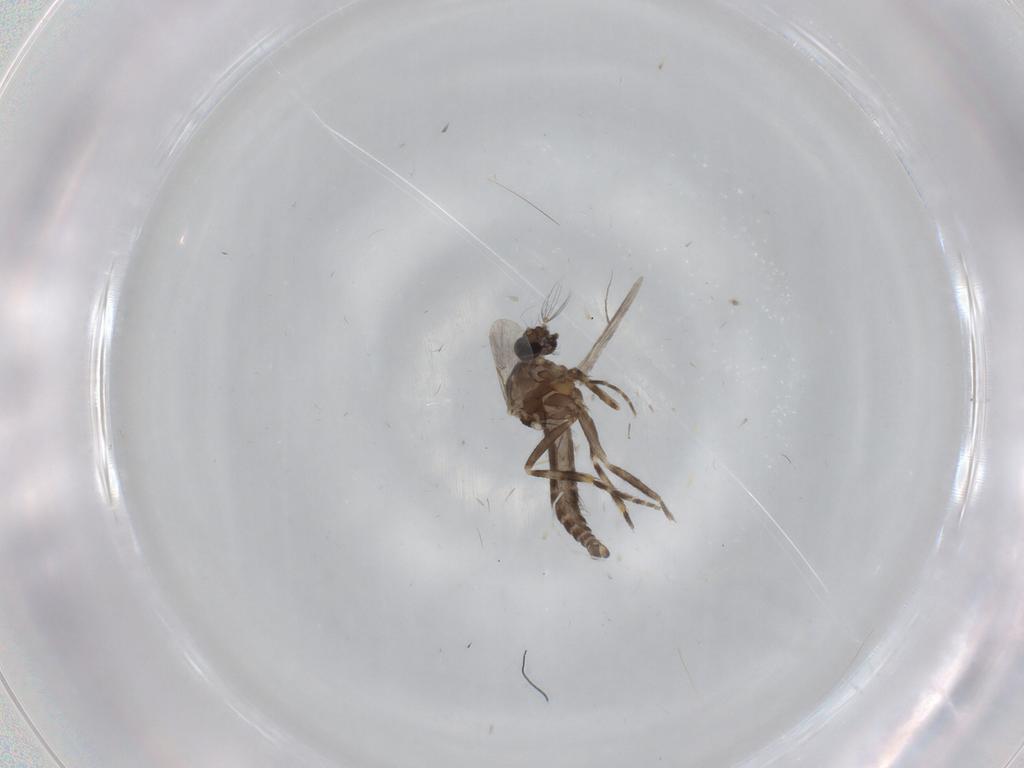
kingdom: Animalia
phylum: Arthropoda
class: Insecta
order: Diptera
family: Ceratopogonidae
